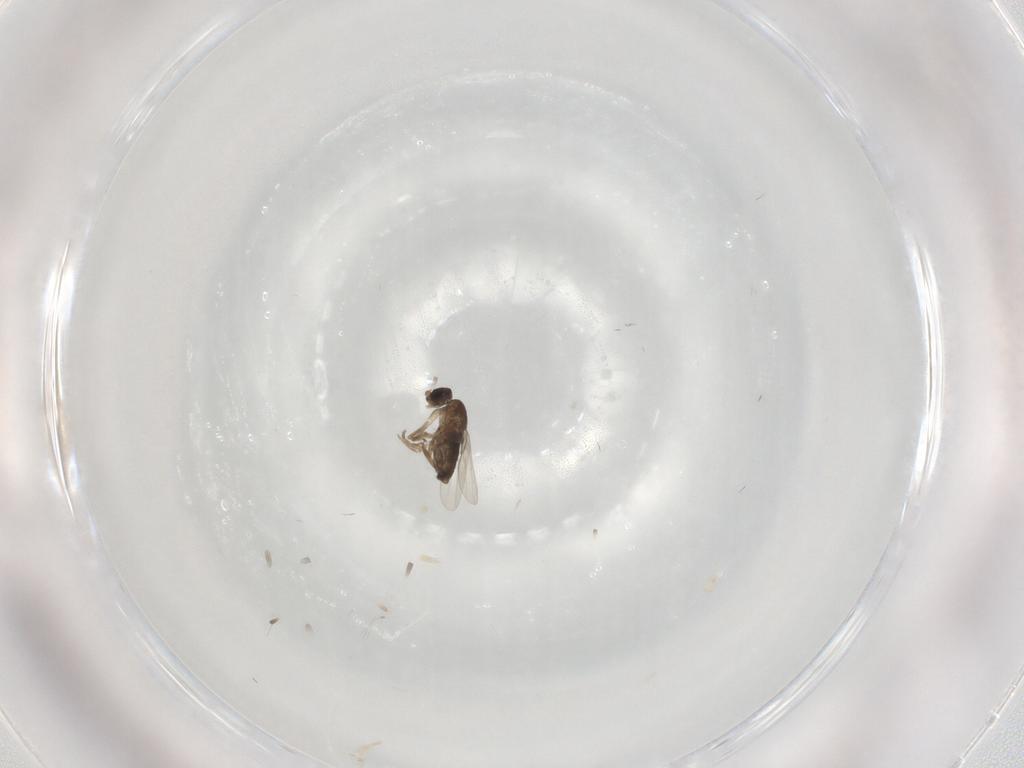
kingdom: Animalia
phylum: Arthropoda
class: Insecta
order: Diptera
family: Phoridae
